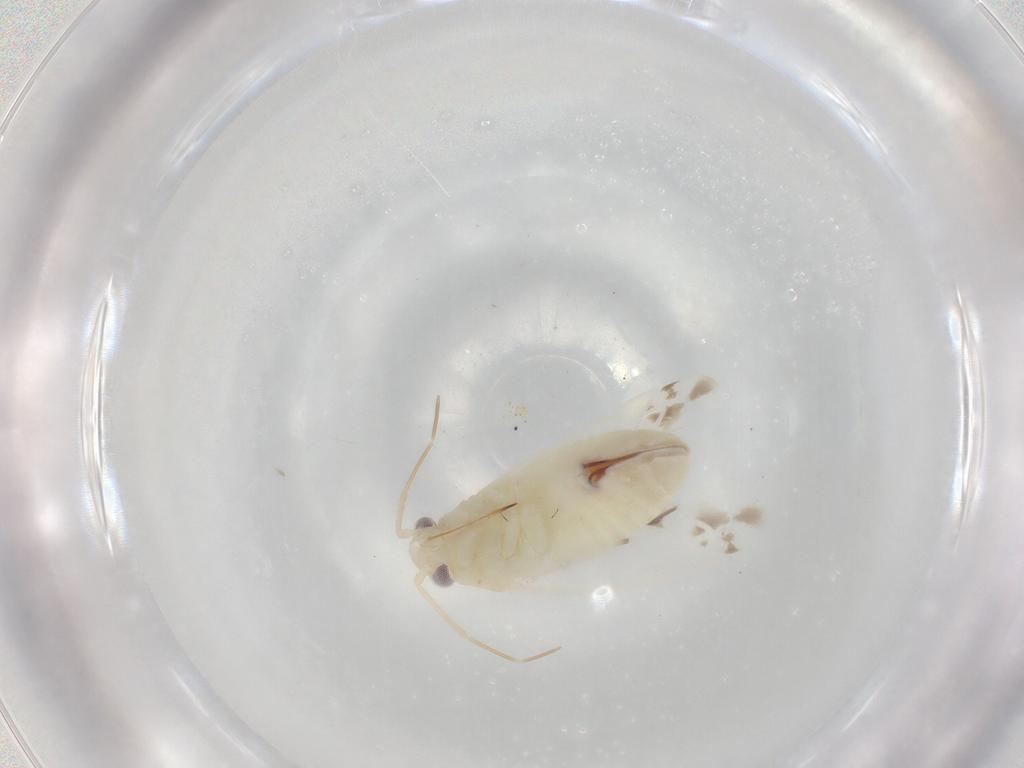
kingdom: Animalia
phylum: Arthropoda
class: Insecta
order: Hemiptera
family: Miridae
